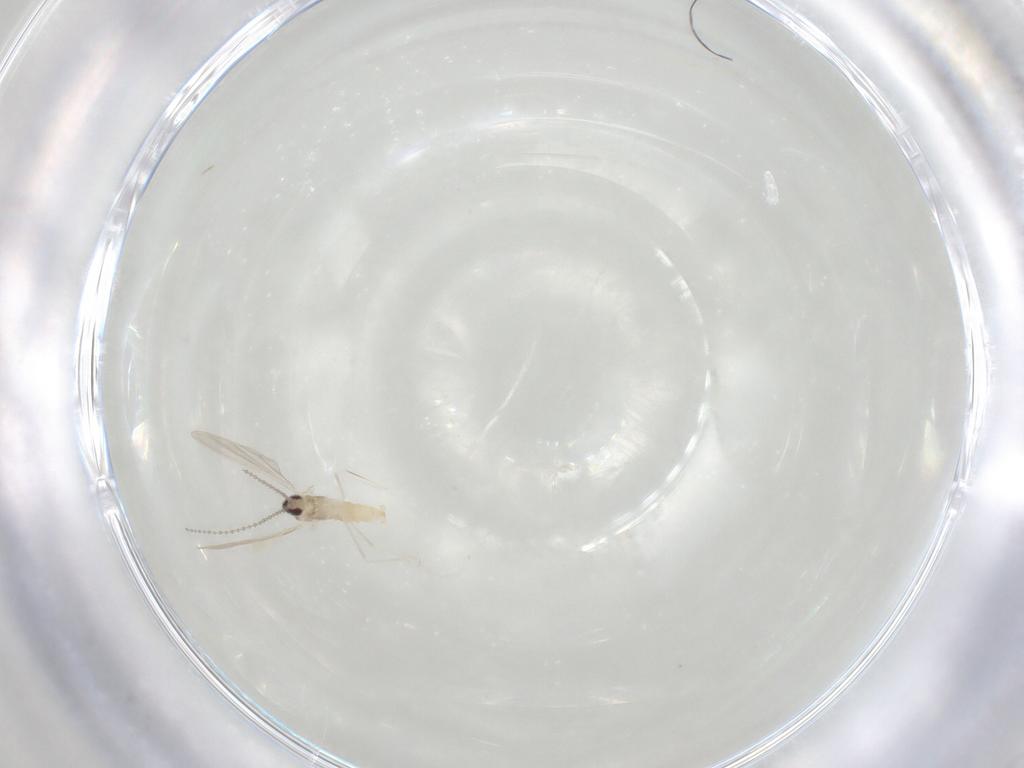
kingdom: Animalia
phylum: Arthropoda
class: Insecta
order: Diptera
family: Cecidomyiidae
